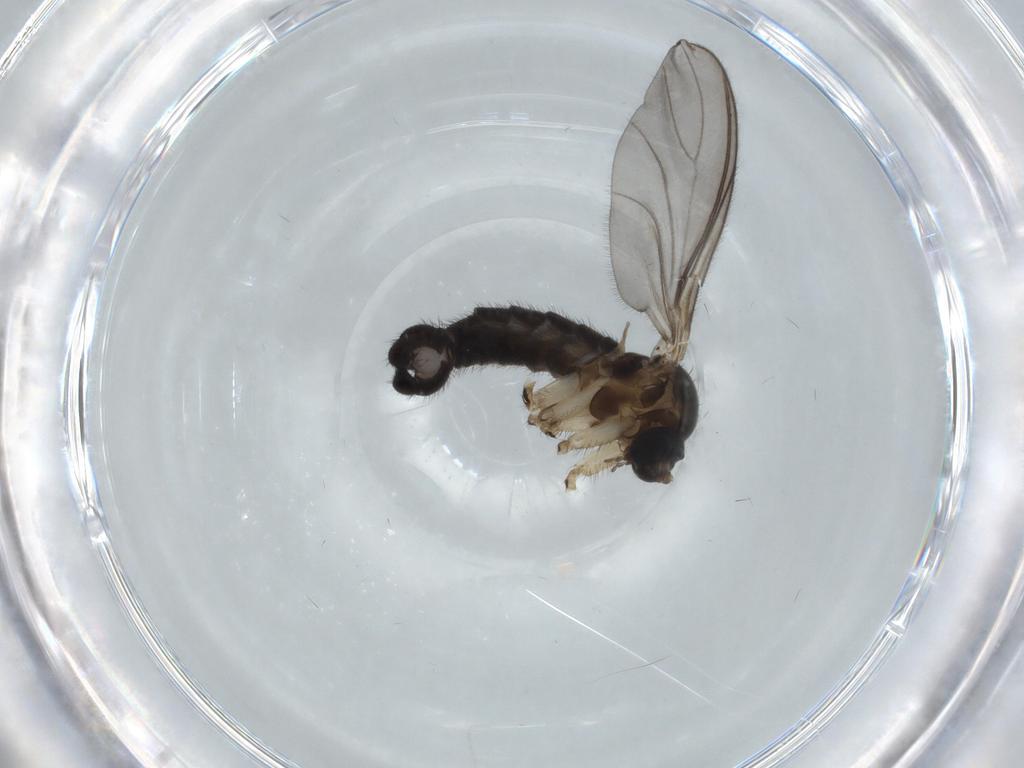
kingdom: Animalia
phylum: Arthropoda
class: Insecta
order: Diptera
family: Sciaridae
